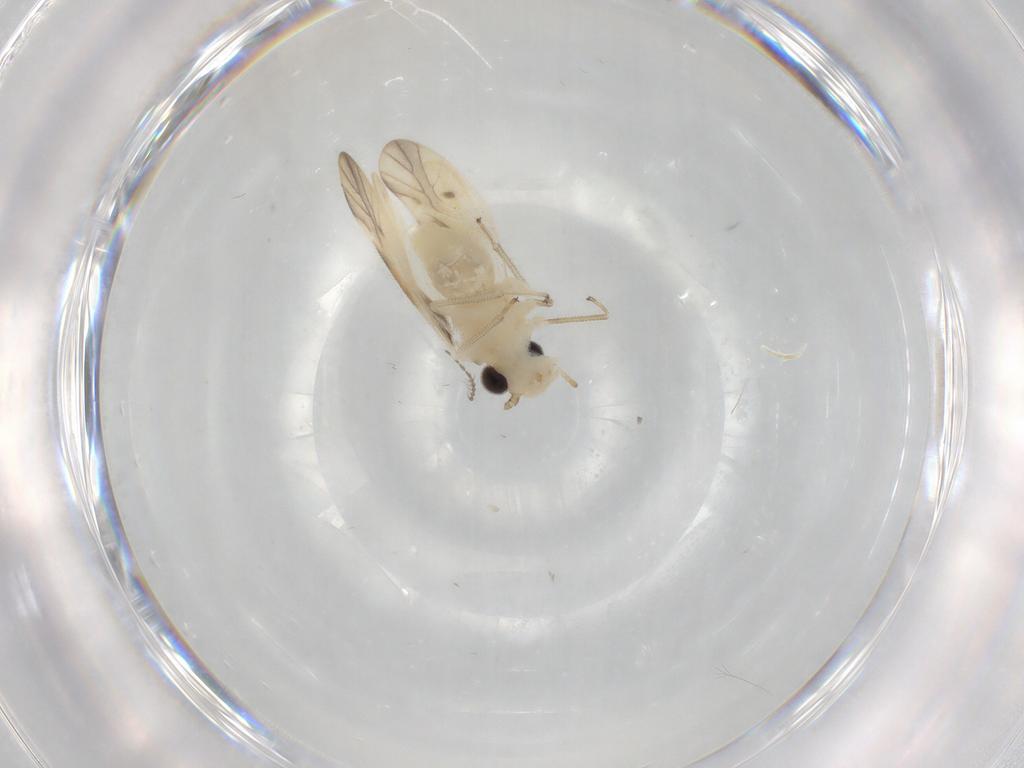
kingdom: Animalia
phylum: Arthropoda
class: Insecta
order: Psocodea
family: Caeciliusidae
